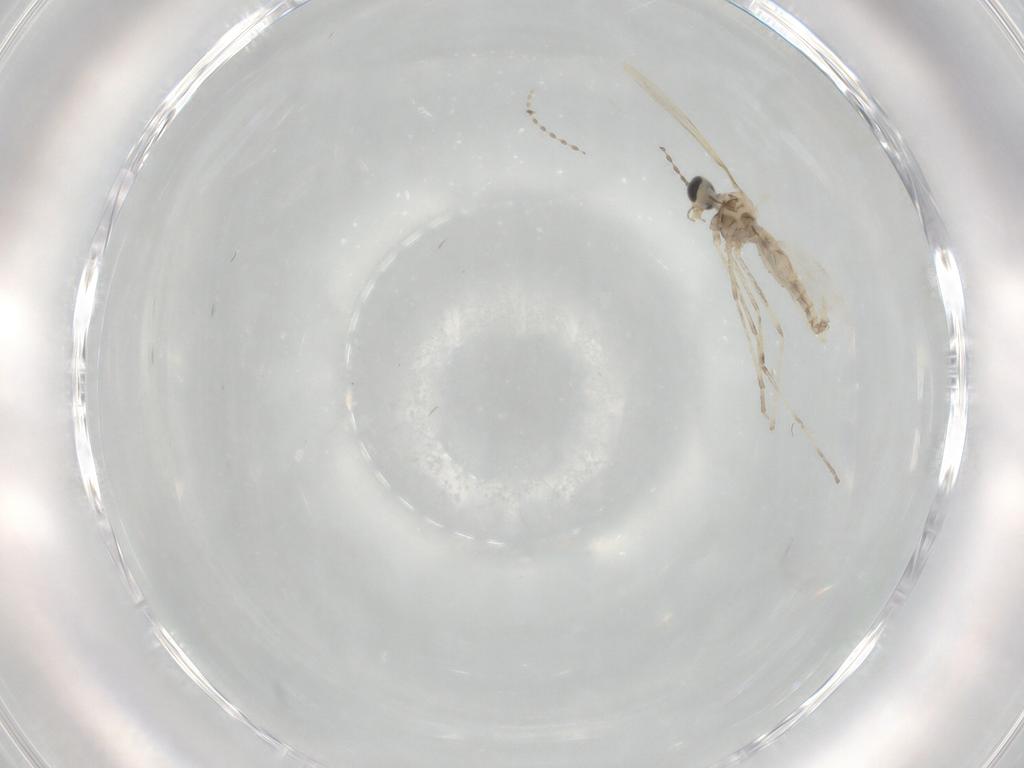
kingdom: Animalia
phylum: Arthropoda
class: Insecta
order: Diptera
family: Cecidomyiidae
